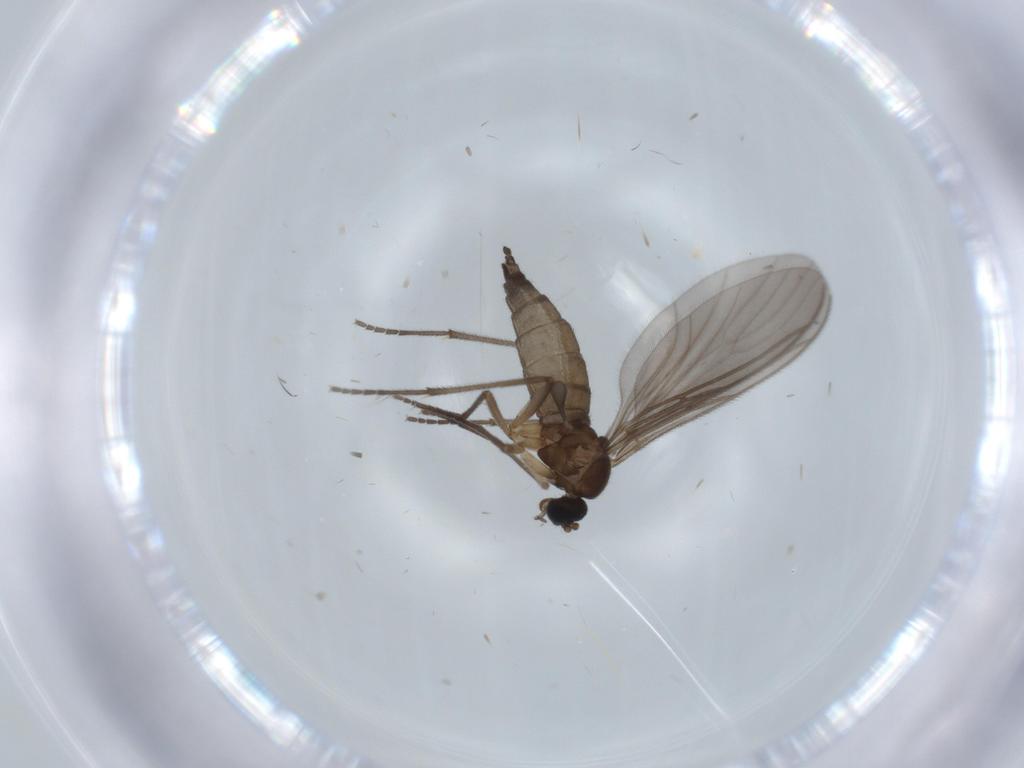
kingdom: Animalia
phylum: Arthropoda
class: Insecta
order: Diptera
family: Sciaridae
